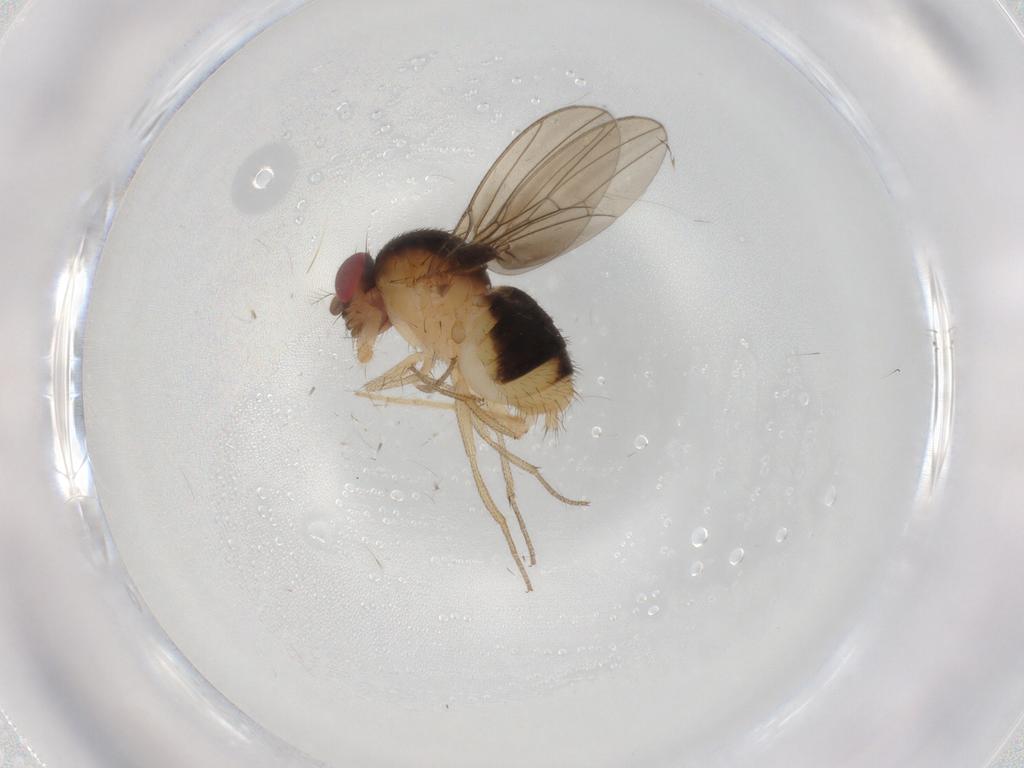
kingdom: Animalia
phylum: Arthropoda
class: Insecta
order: Diptera
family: Drosophilidae
